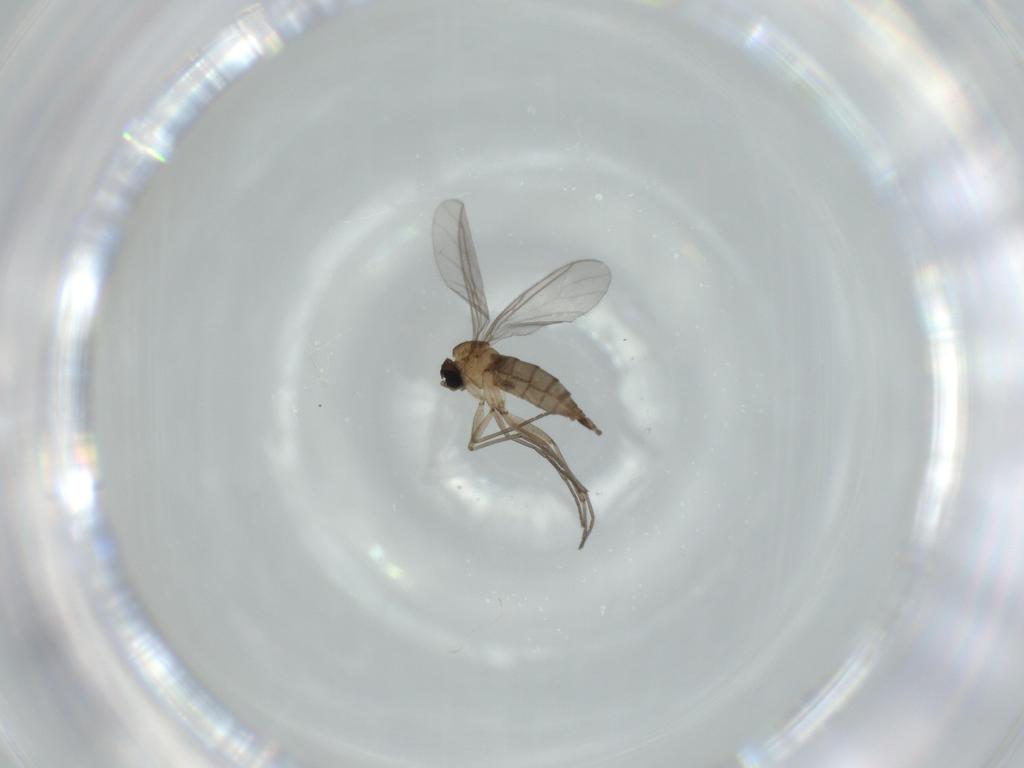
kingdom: Animalia
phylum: Arthropoda
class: Insecta
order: Diptera
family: Sciaridae
